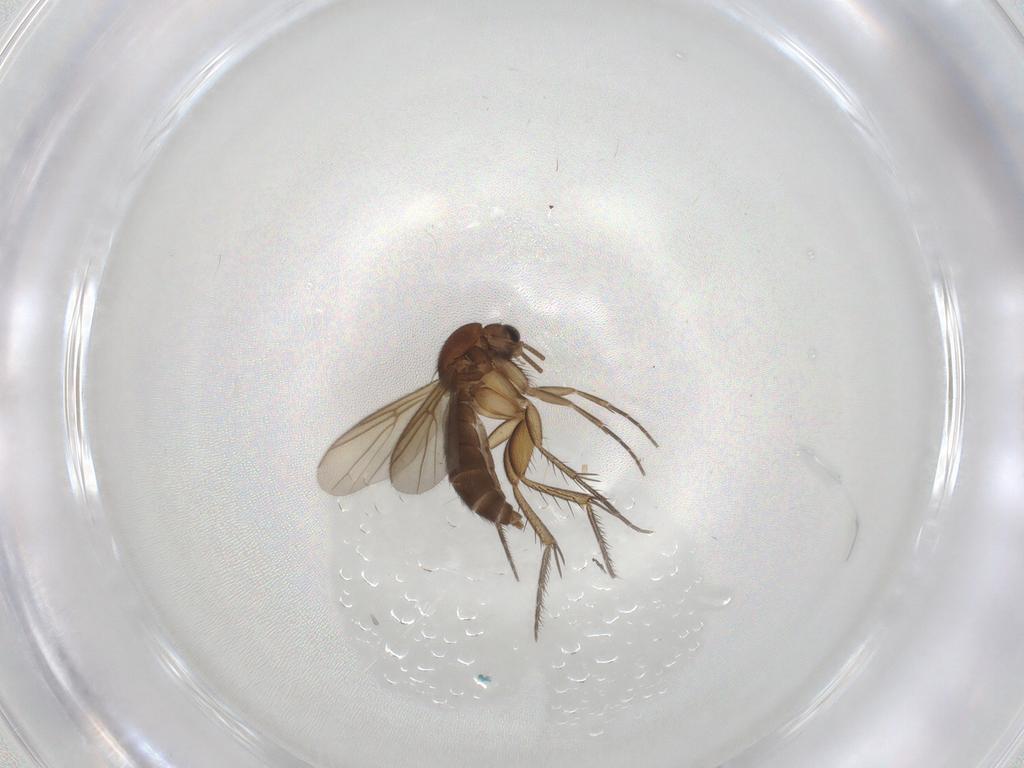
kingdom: Animalia
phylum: Arthropoda
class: Insecta
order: Diptera
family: Mycetophilidae
